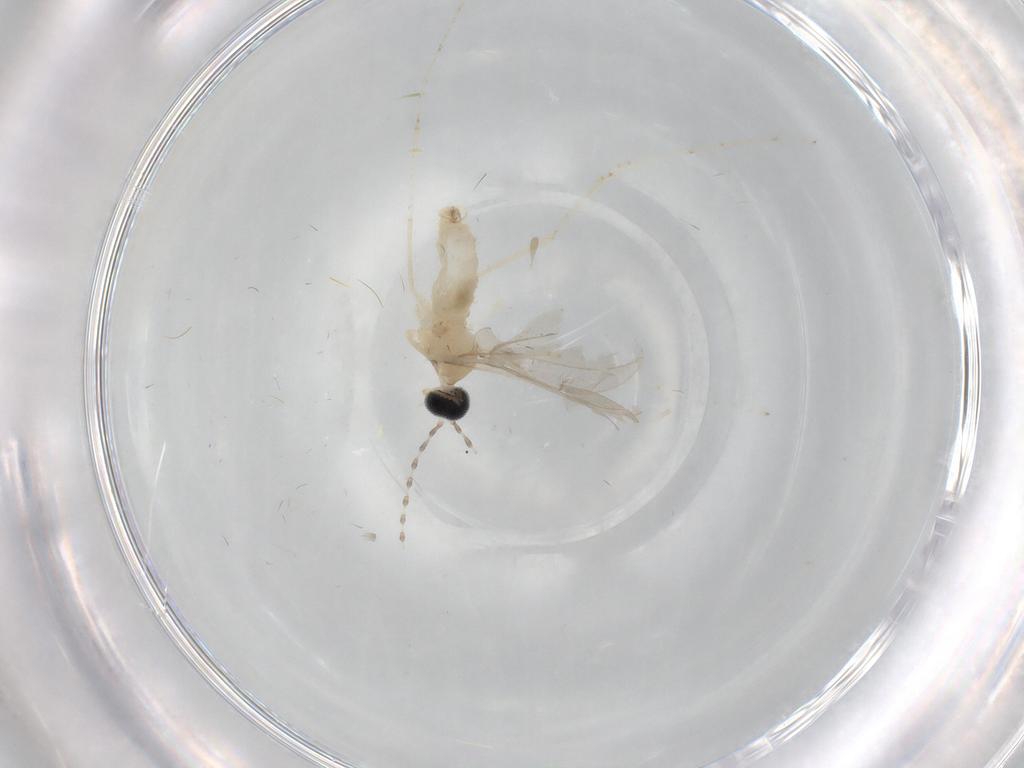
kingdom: Animalia
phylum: Arthropoda
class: Insecta
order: Diptera
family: Cecidomyiidae
